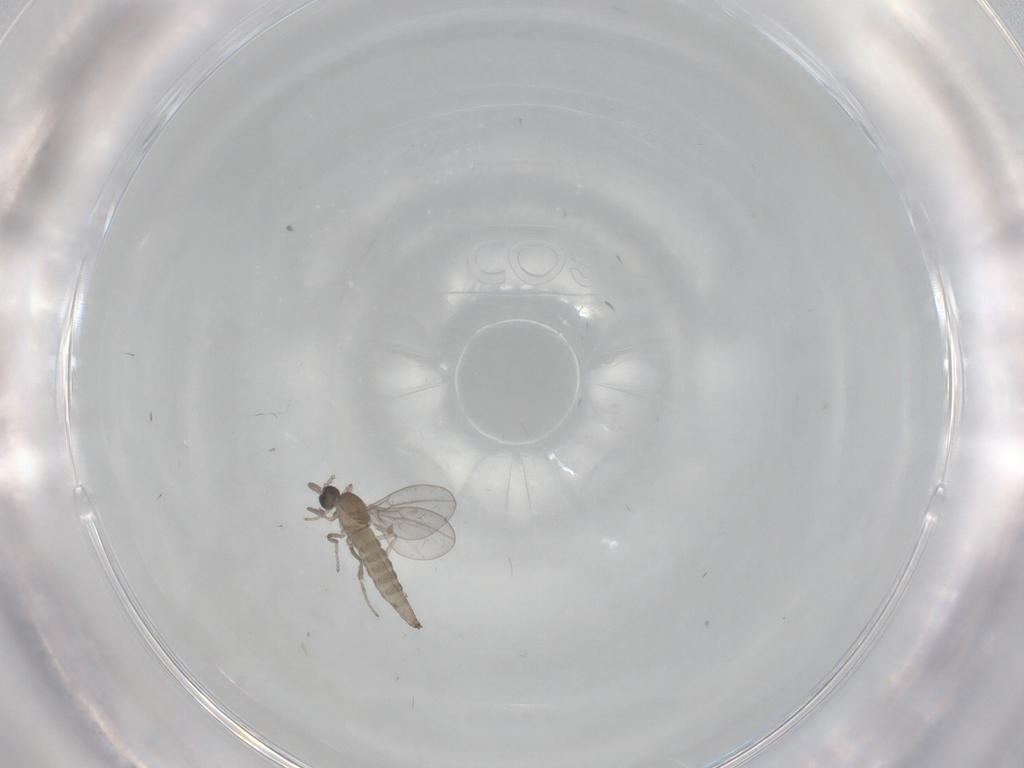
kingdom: Animalia
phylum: Arthropoda
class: Insecta
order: Diptera
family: Cecidomyiidae
